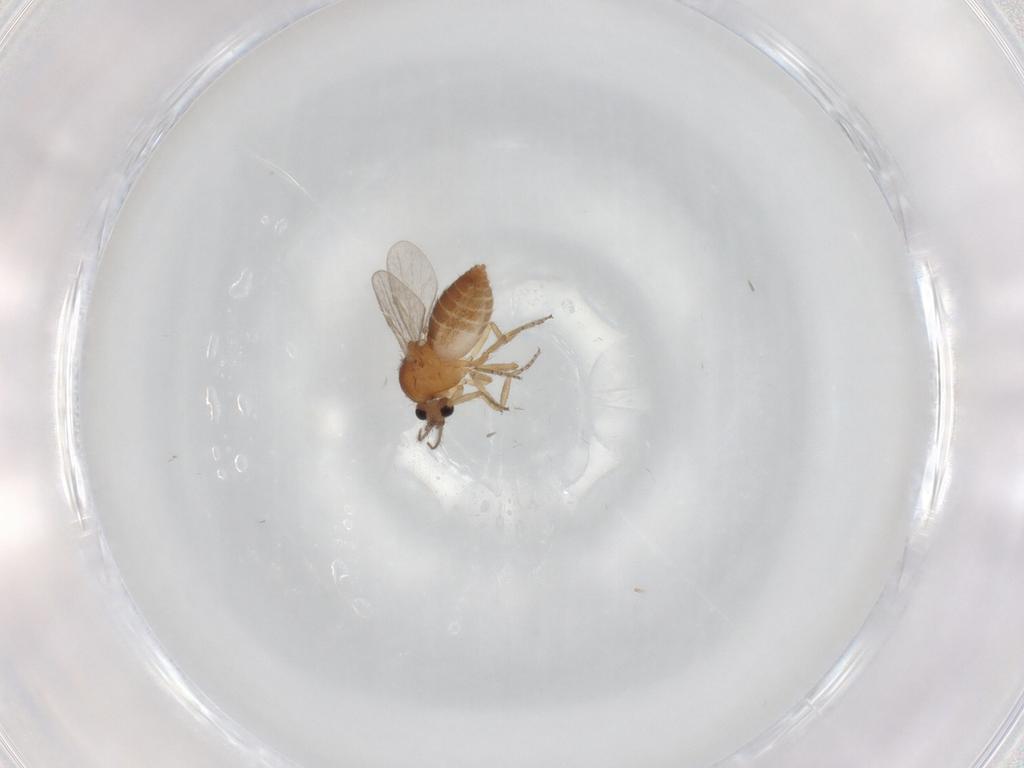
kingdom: Animalia
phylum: Arthropoda
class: Insecta
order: Diptera
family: Ceratopogonidae
